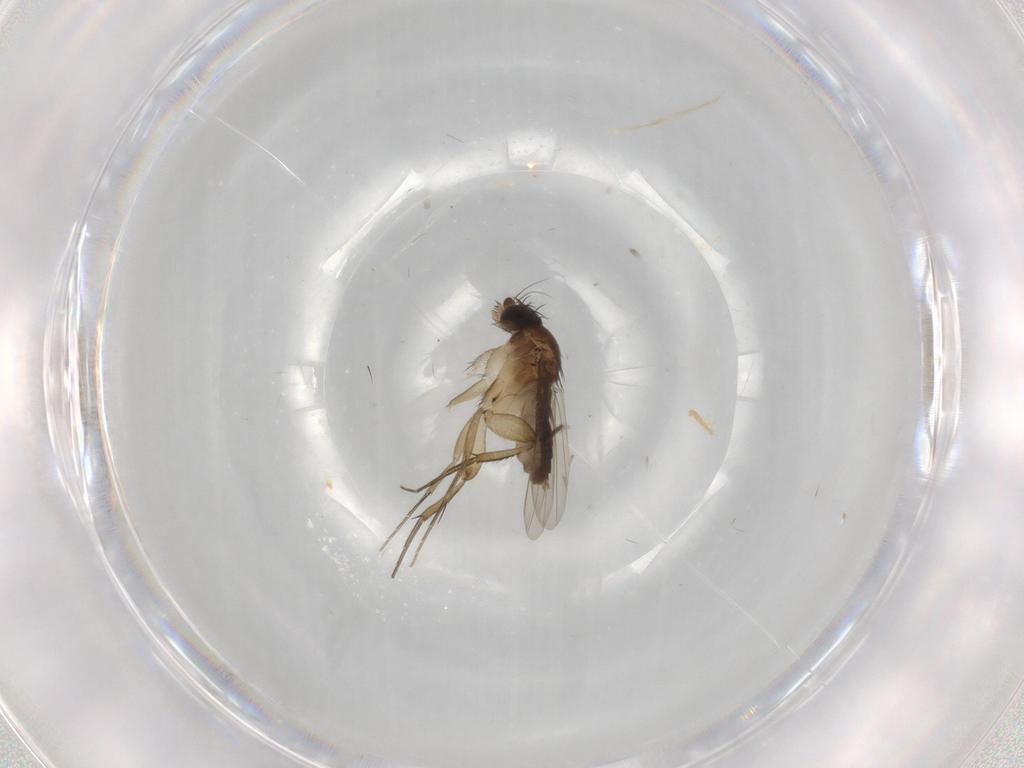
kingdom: Animalia
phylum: Arthropoda
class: Insecta
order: Diptera
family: Phoridae
